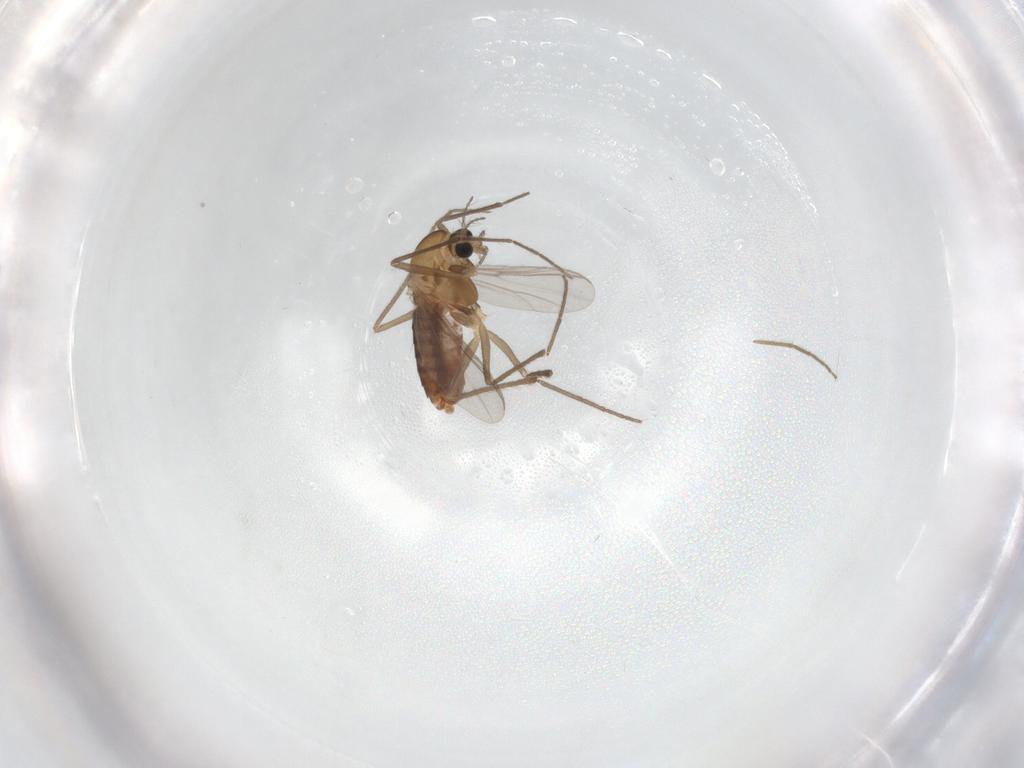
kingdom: Animalia
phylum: Arthropoda
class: Insecta
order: Diptera
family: Chironomidae
